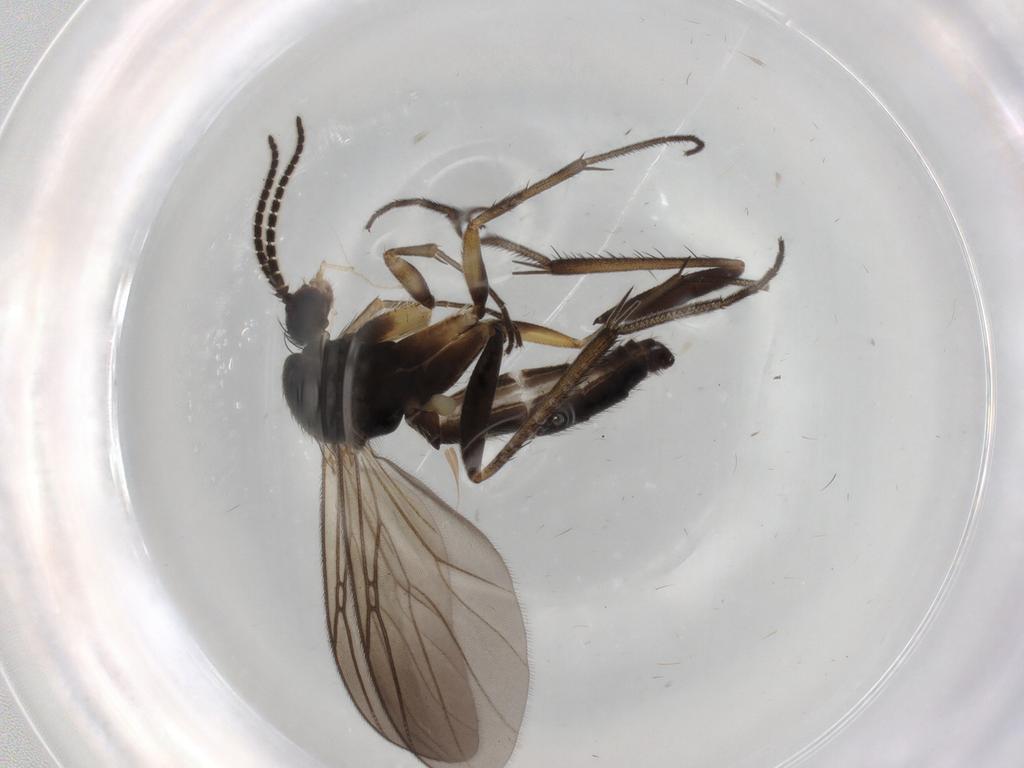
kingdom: Animalia
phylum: Arthropoda
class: Insecta
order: Diptera
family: Mycetophilidae
